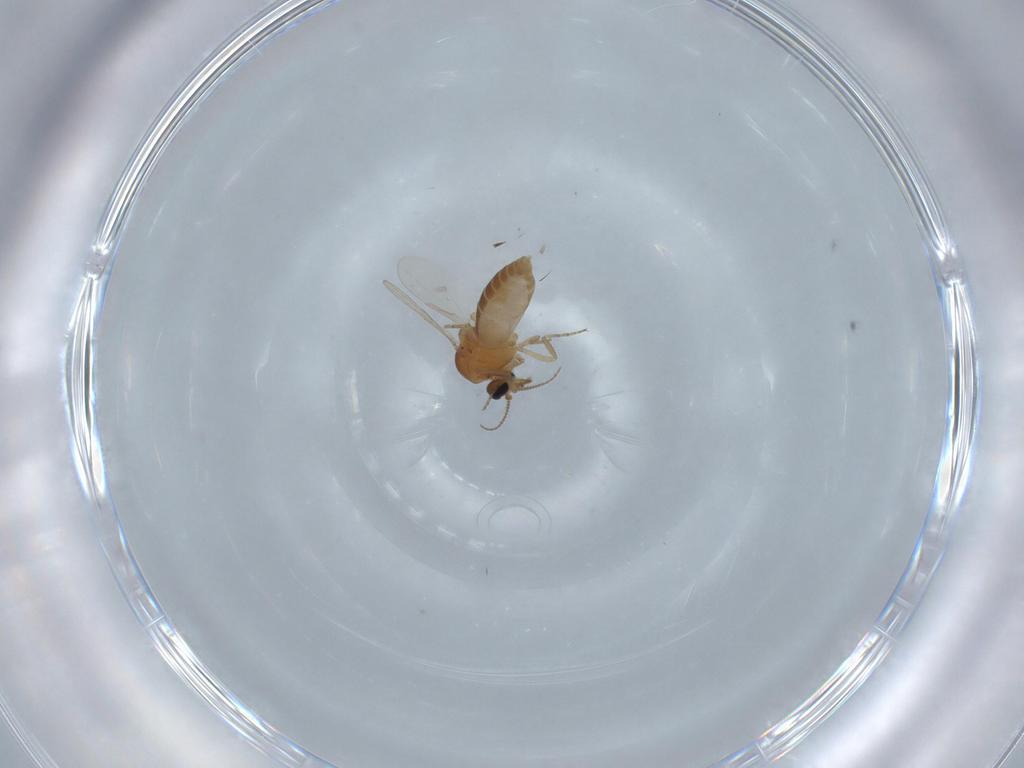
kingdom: Animalia
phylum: Arthropoda
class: Insecta
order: Diptera
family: Ceratopogonidae
